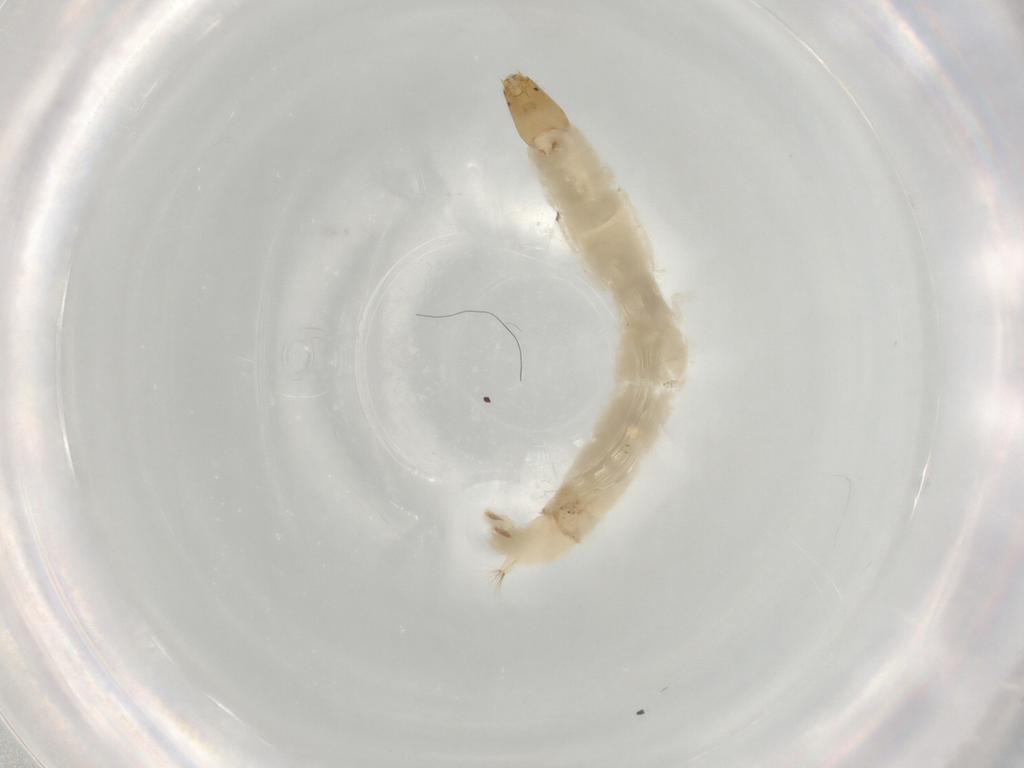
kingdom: Animalia
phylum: Arthropoda
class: Insecta
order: Diptera
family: Chironomidae
